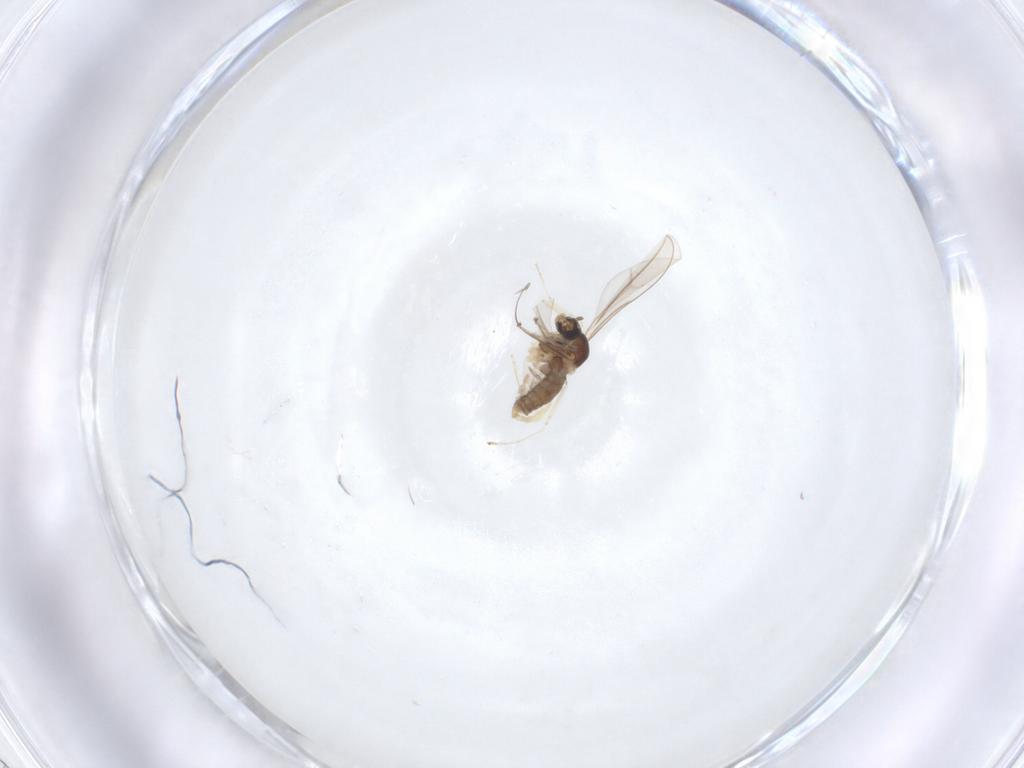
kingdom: Animalia
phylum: Arthropoda
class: Insecta
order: Diptera
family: Cecidomyiidae
